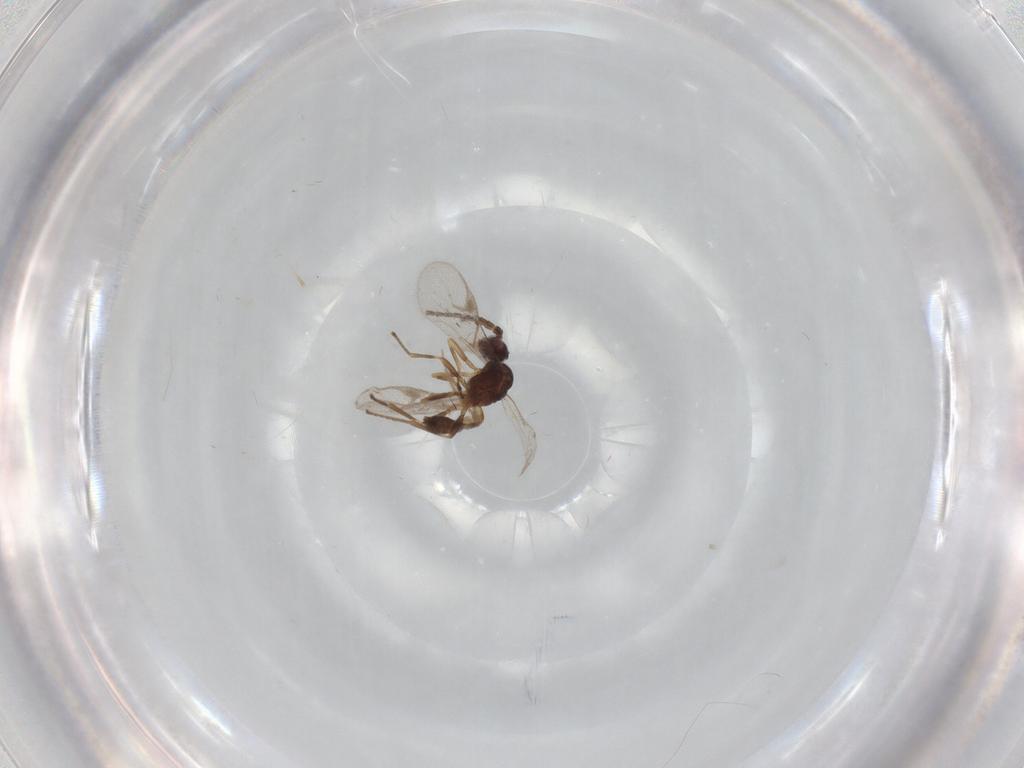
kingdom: Animalia
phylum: Arthropoda
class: Insecta
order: Hymenoptera
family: Braconidae
